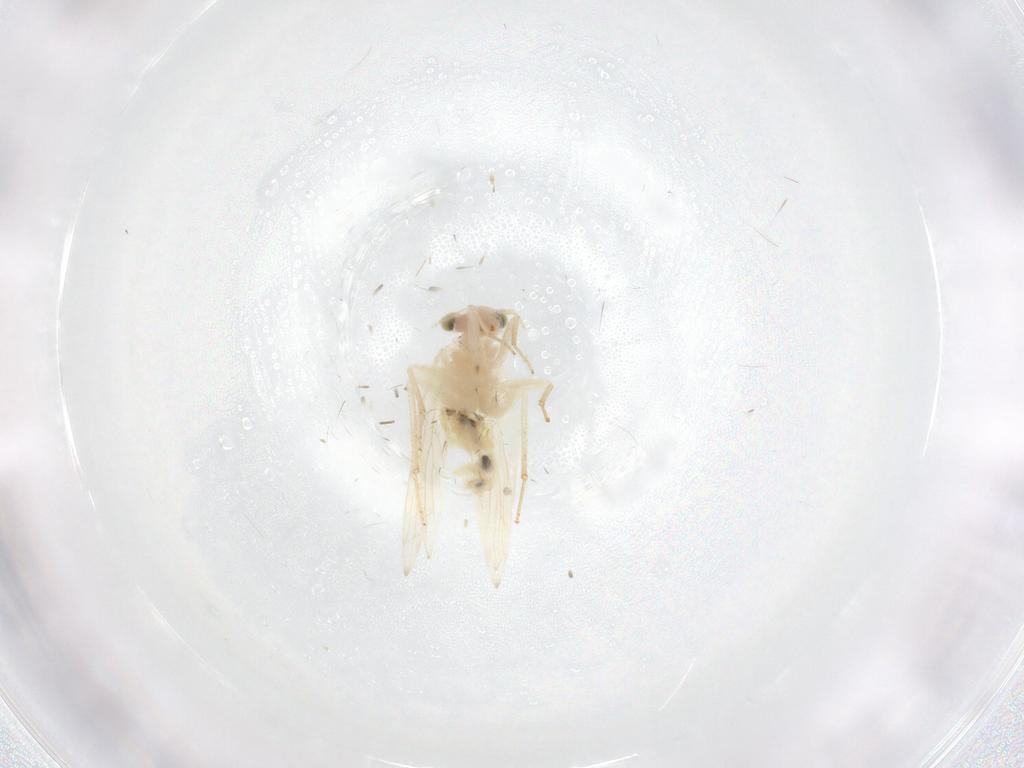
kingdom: Animalia
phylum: Arthropoda
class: Insecta
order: Psocodea
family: Lepidopsocidae
